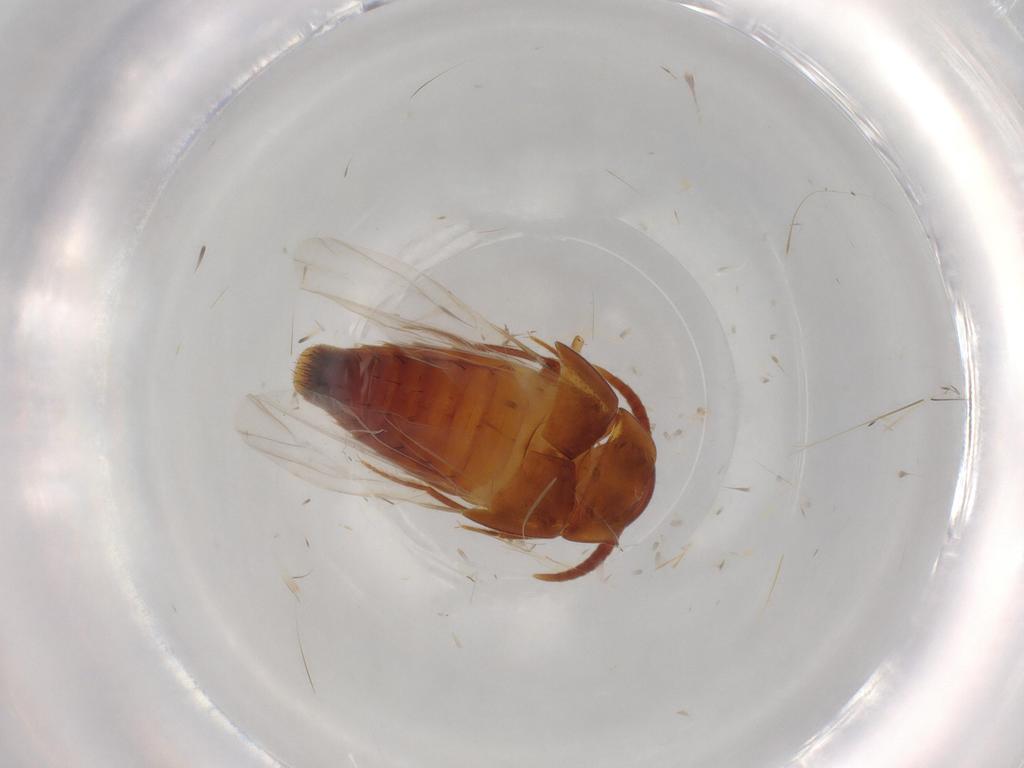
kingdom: Animalia
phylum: Arthropoda
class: Insecta
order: Coleoptera
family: Staphylinidae
